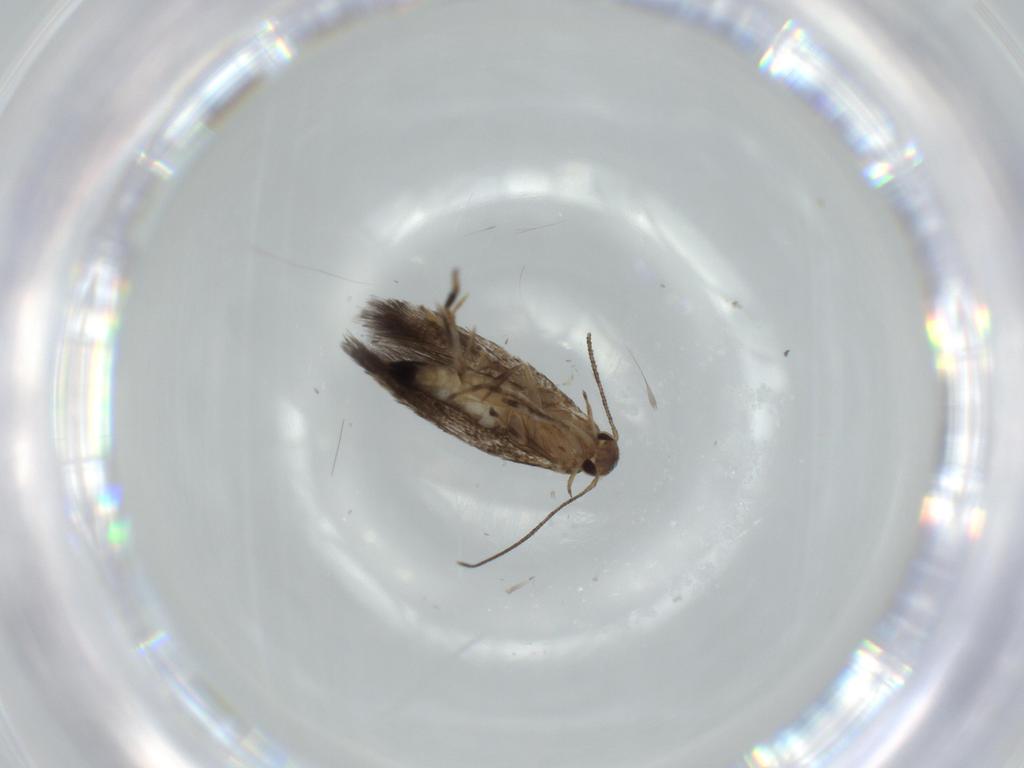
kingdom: Animalia
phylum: Arthropoda
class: Insecta
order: Lepidoptera
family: Cosmopterigidae
